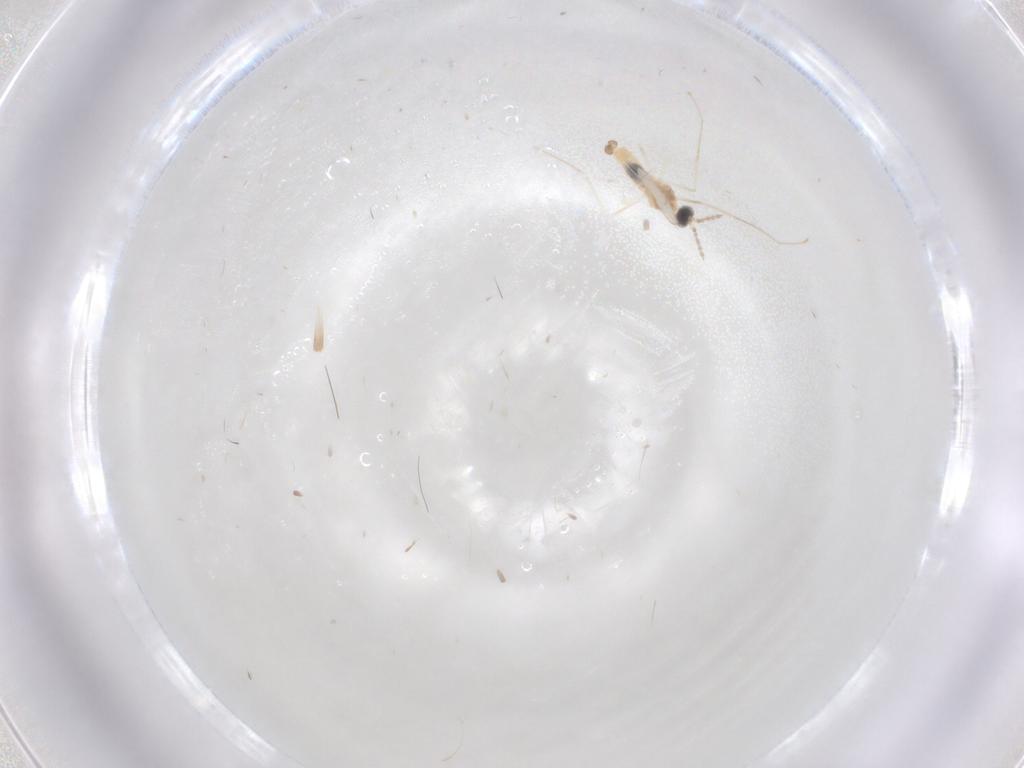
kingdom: Animalia
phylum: Arthropoda
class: Insecta
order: Diptera
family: Cecidomyiidae
